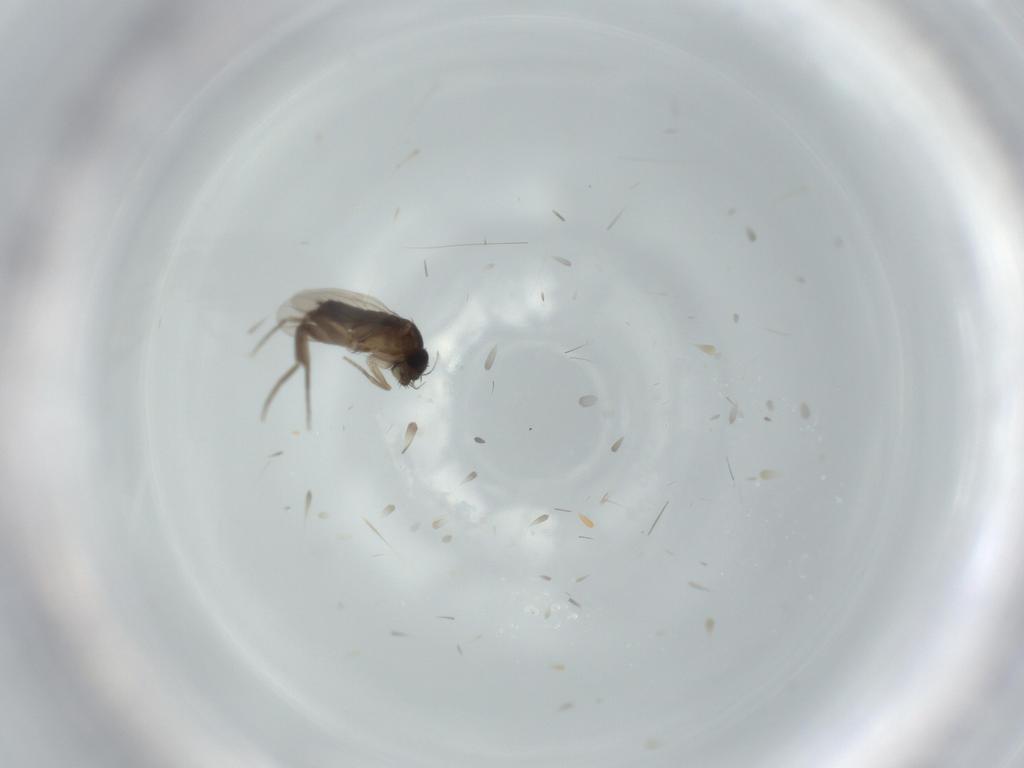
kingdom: Animalia
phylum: Arthropoda
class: Insecta
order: Diptera
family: Phoridae
